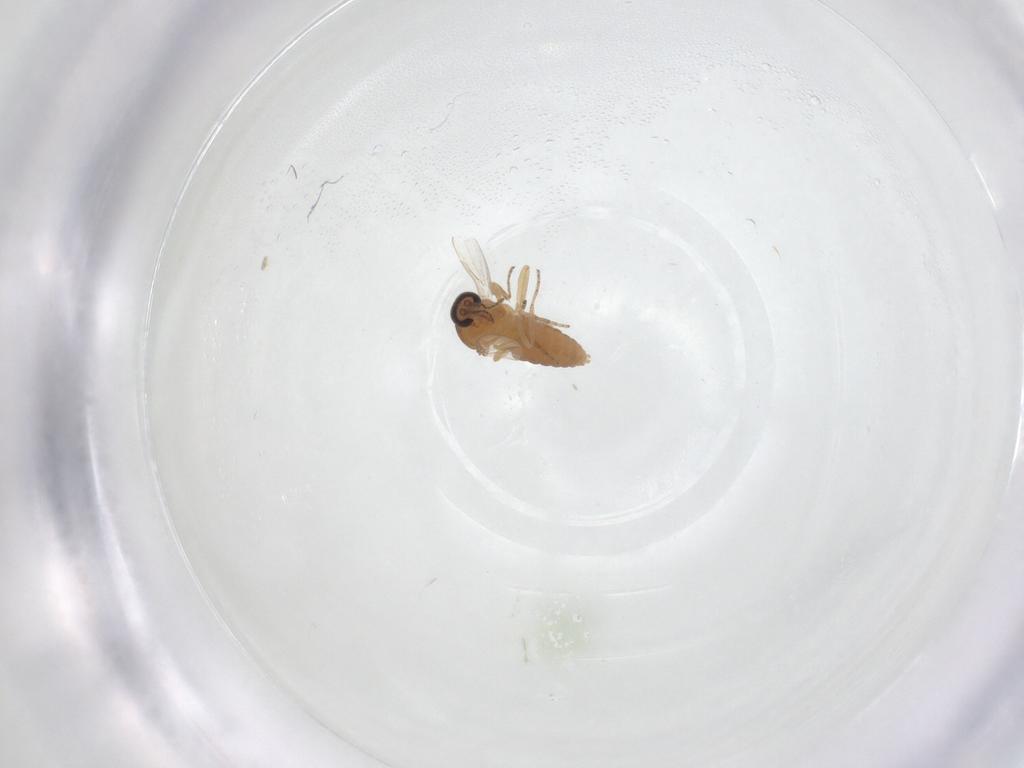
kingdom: Animalia
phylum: Arthropoda
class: Insecta
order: Diptera
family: Ceratopogonidae
